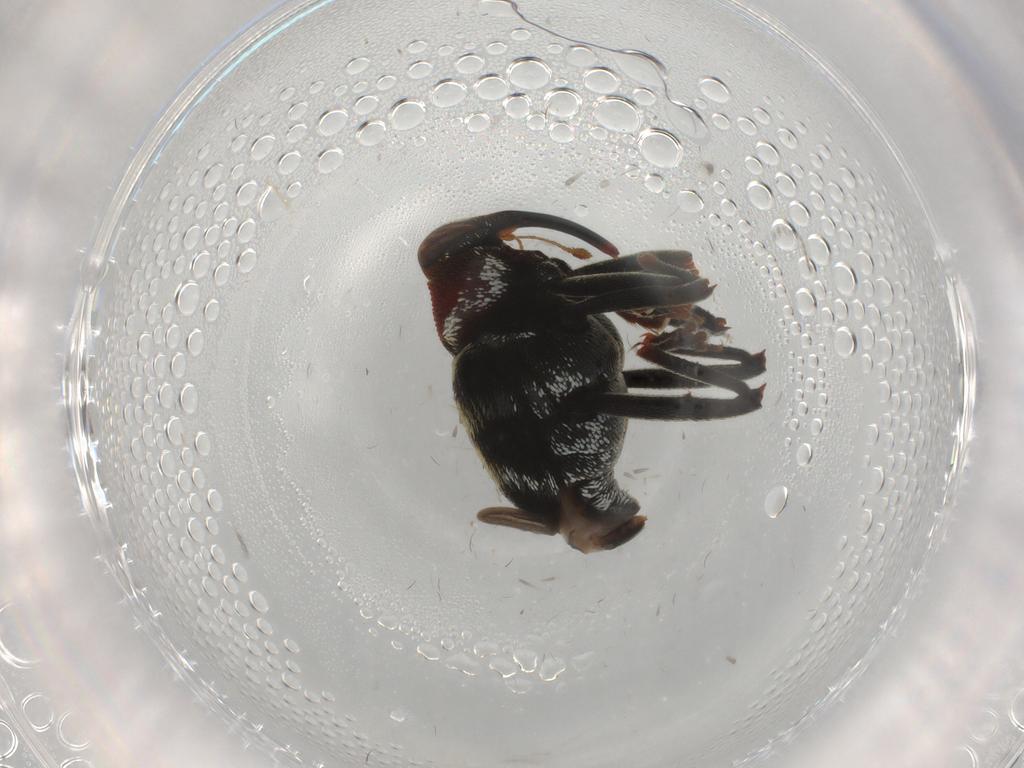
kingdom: Animalia
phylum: Arthropoda
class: Insecta
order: Coleoptera
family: Curculionidae
